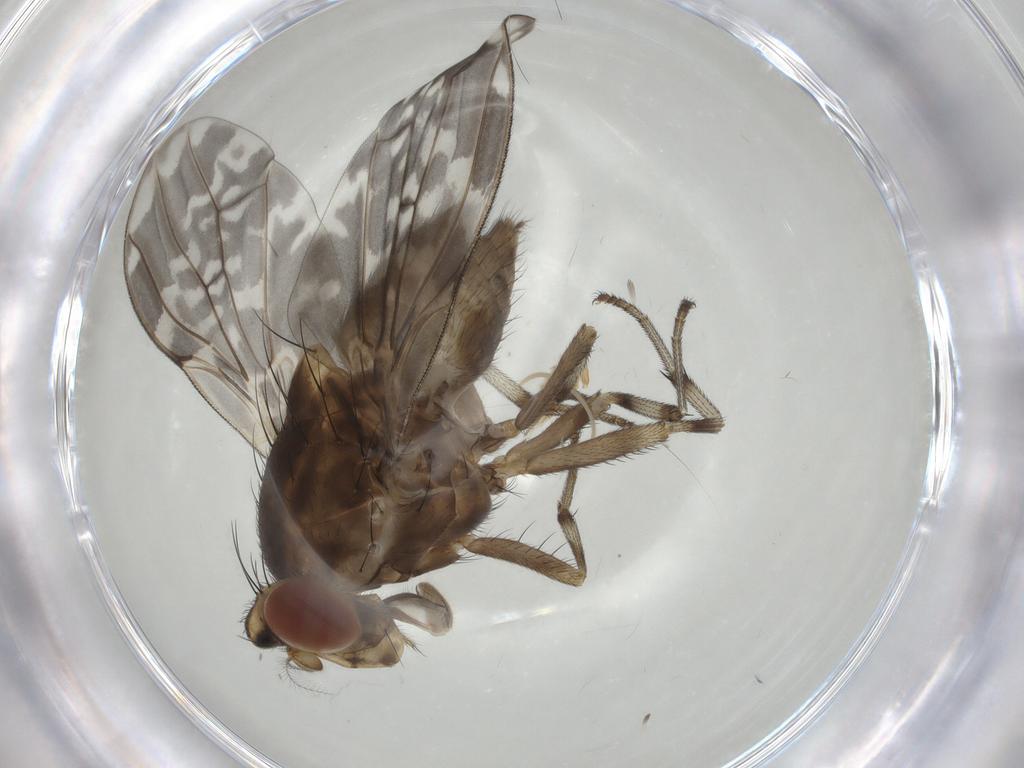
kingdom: Animalia
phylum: Arthropoda
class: Insecta
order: Diptera
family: Lauxaniidae
